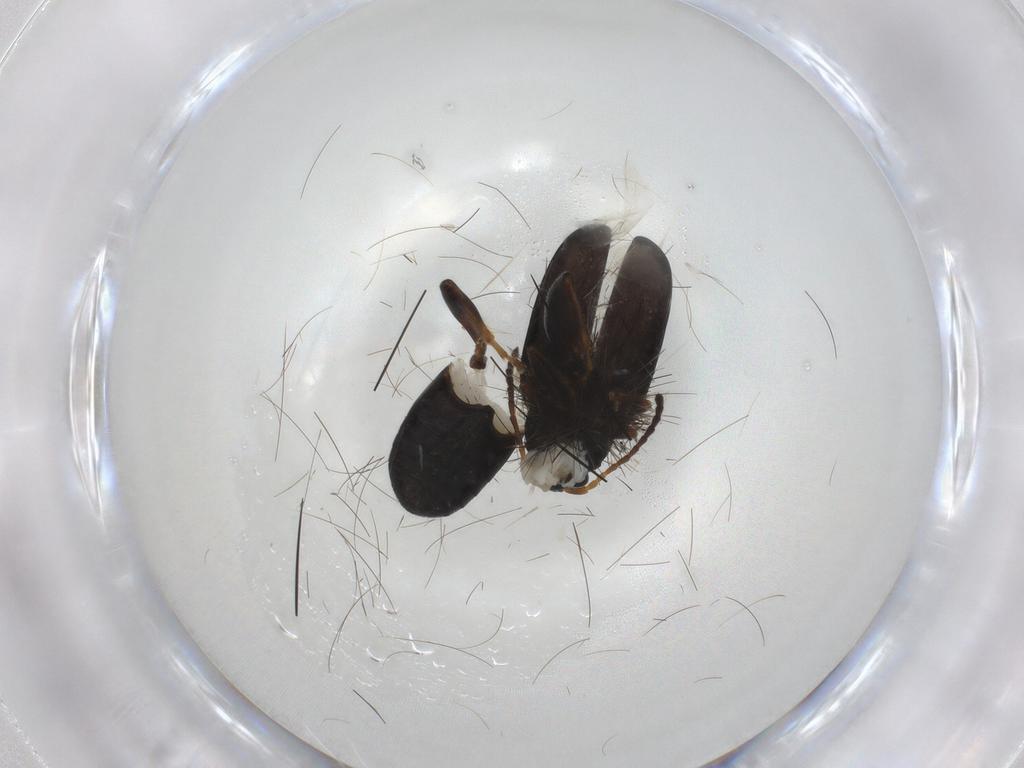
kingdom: Animalia
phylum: Arthropoda
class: Insecta
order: Coleoptera
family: Chrysomelidae
